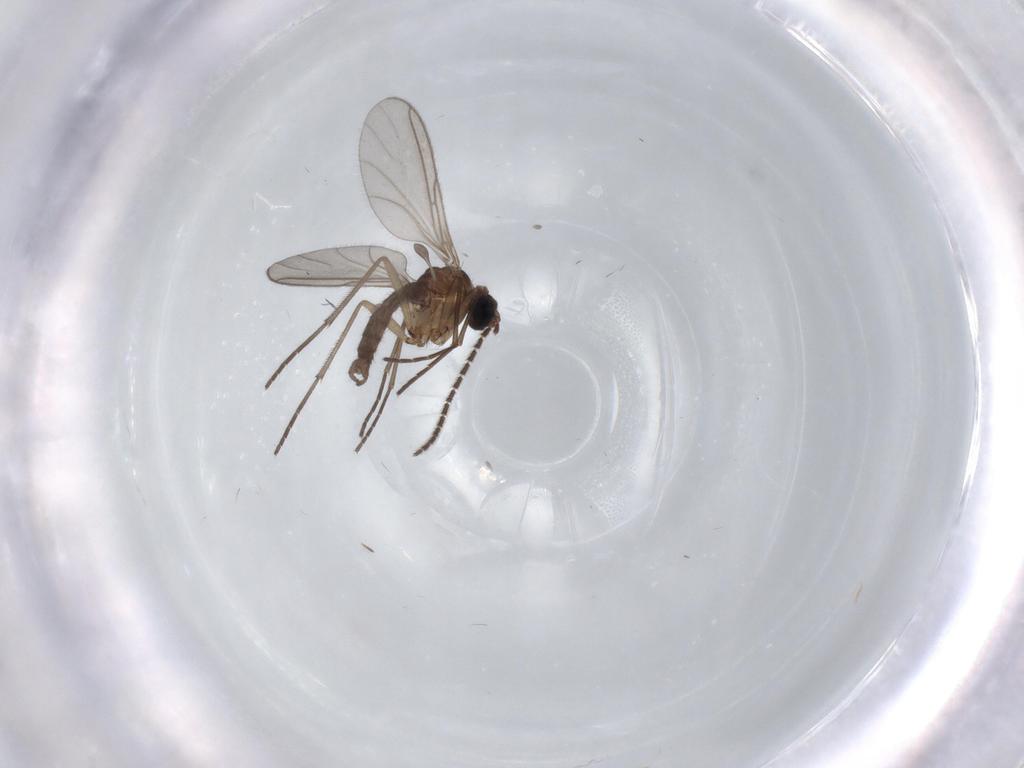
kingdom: Animalia
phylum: Arthropoda
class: Insecta
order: Diptera
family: Sciaridae
